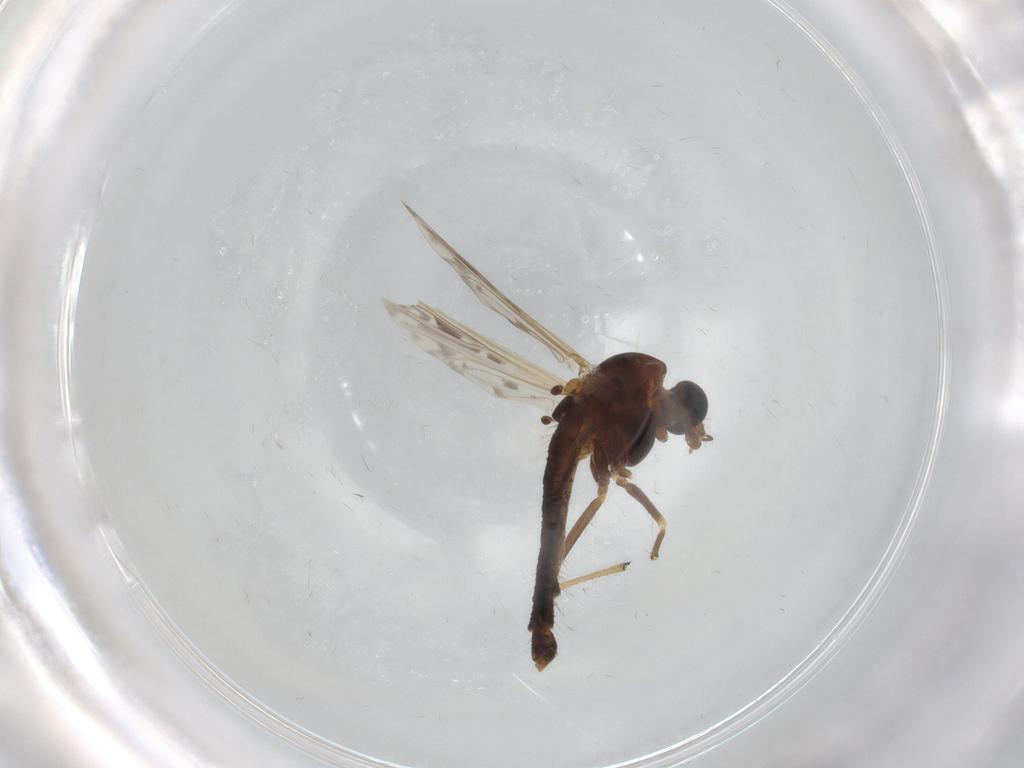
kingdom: Animalia
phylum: Arthropoda
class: Insecta
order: Diptera
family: Chironomidae
